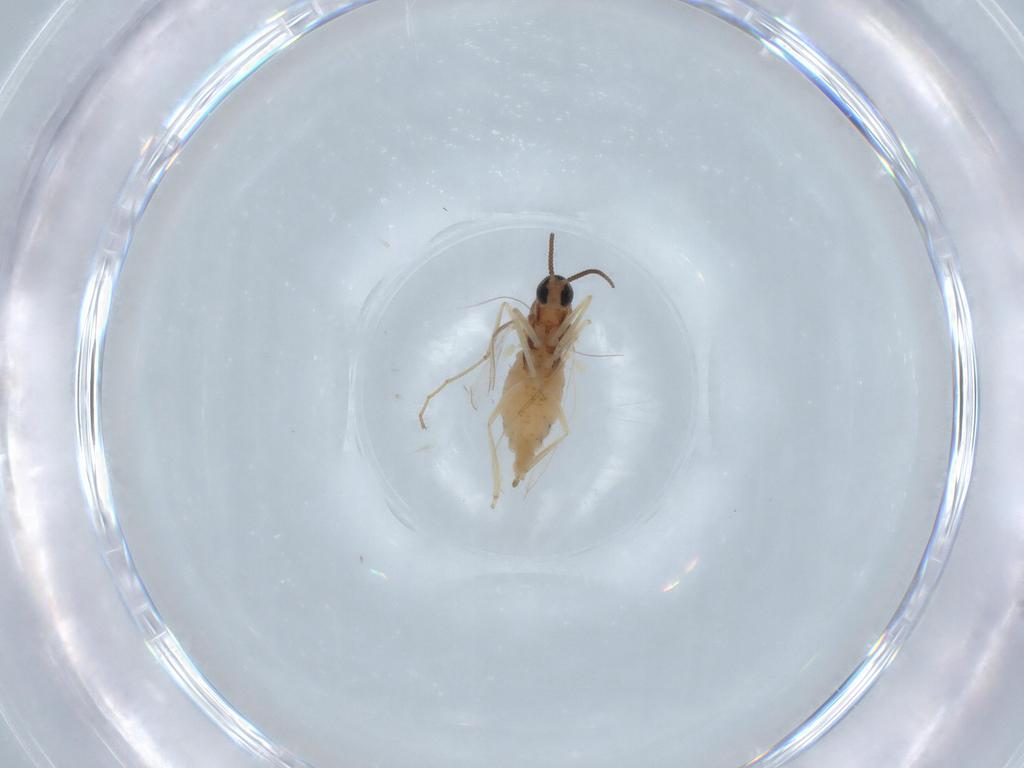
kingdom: Animalia
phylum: Arthropoda
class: Insecta
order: Diptera
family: Cecidomyiidae
